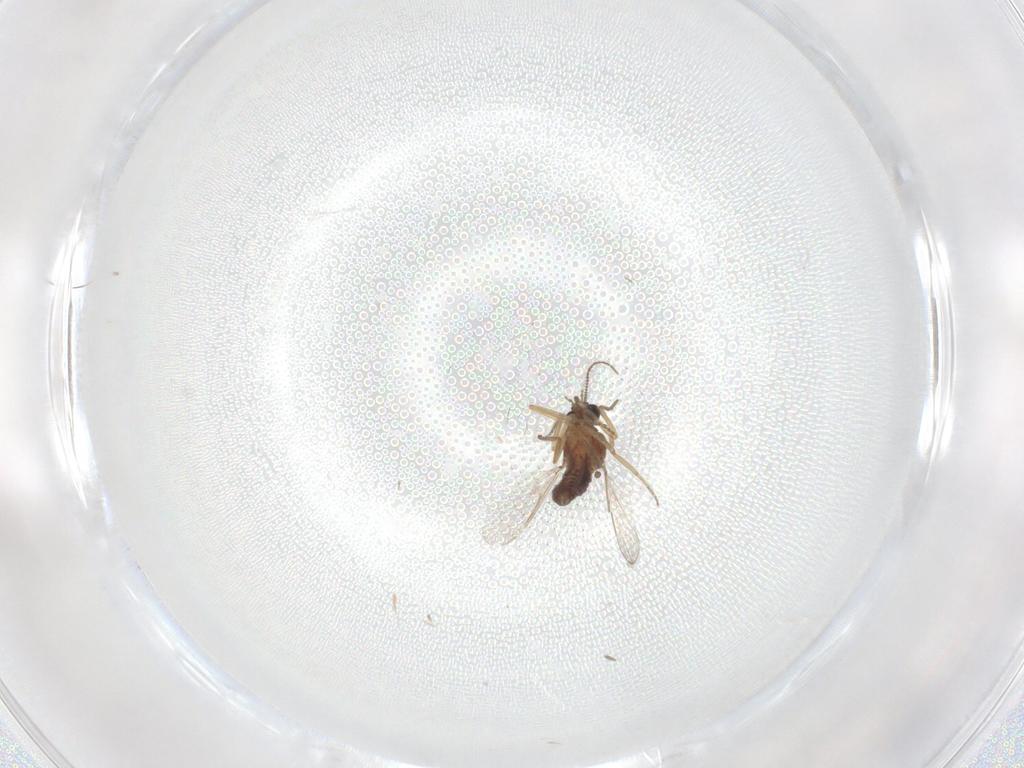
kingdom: Animalia
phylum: Arthropoda
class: Insecta
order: Diptera
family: Ceratopogonidae
